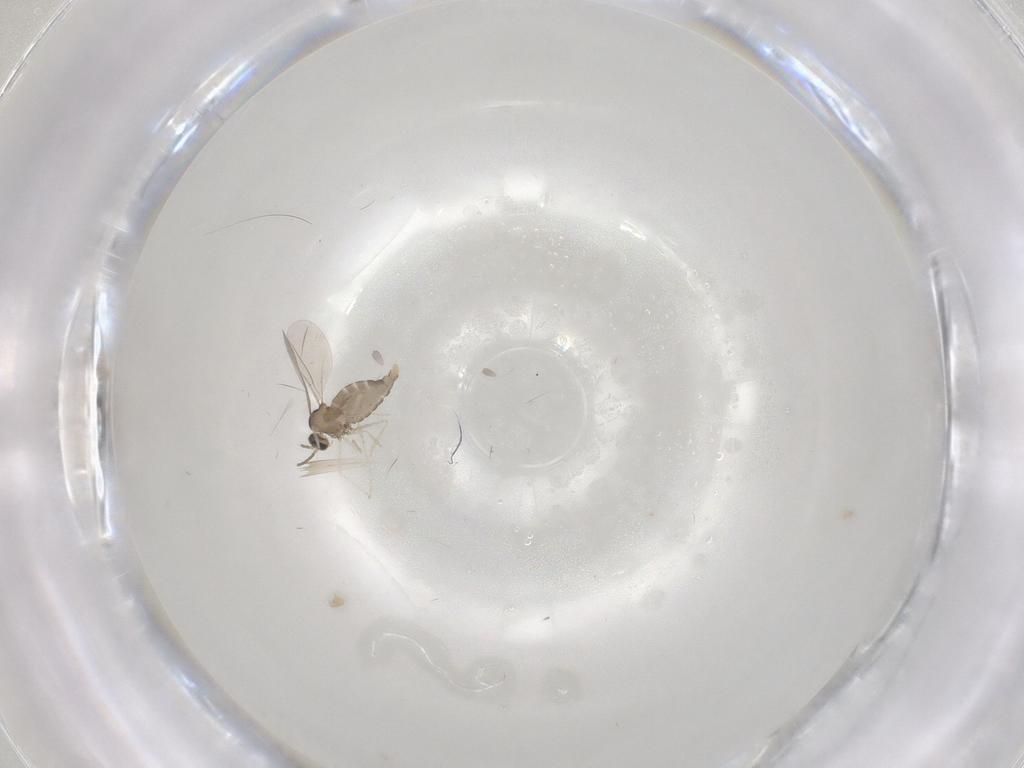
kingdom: Animalia
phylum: Arthropoda
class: Insecta
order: Diptera
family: Cecidomyiidae
